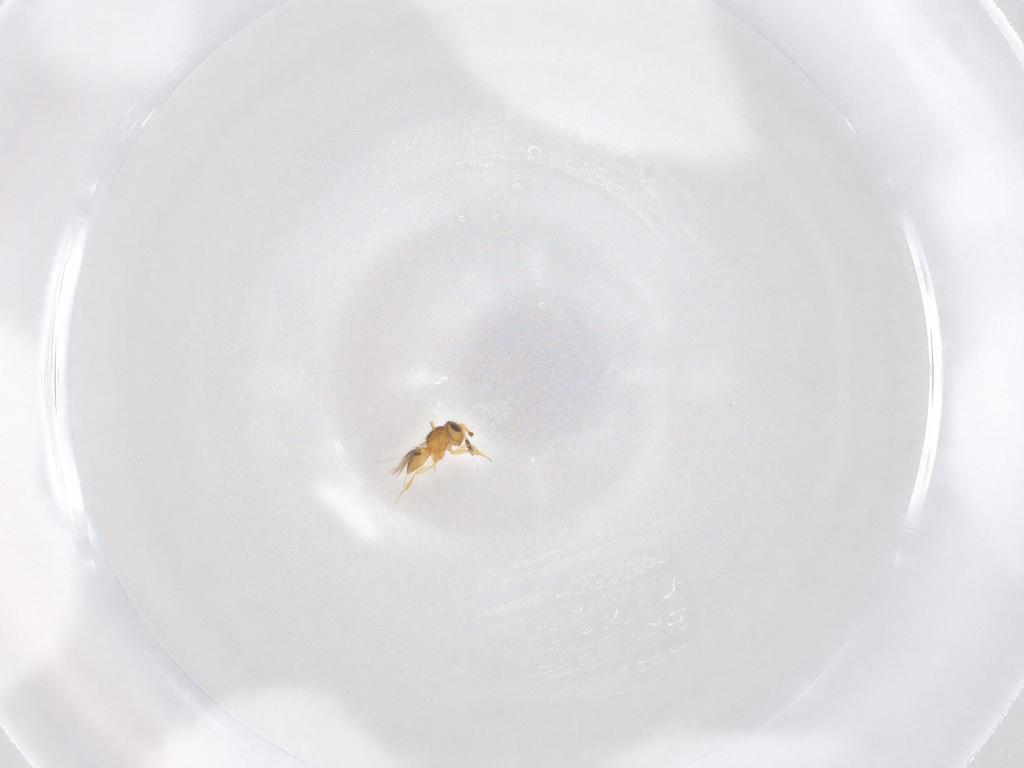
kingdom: Animalia
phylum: Arthropoda
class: Insecta
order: Hymenoptera
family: Scelionidae
